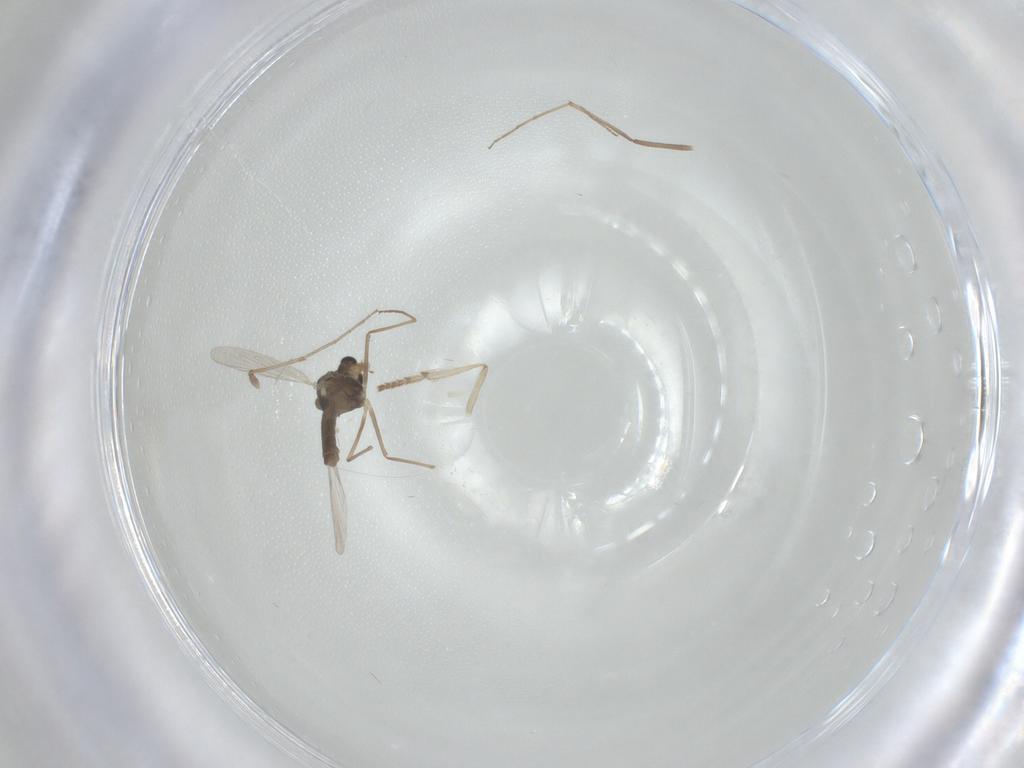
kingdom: Animalia
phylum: Arthropoda
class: Insecta
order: Diptera
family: Chironomidae
